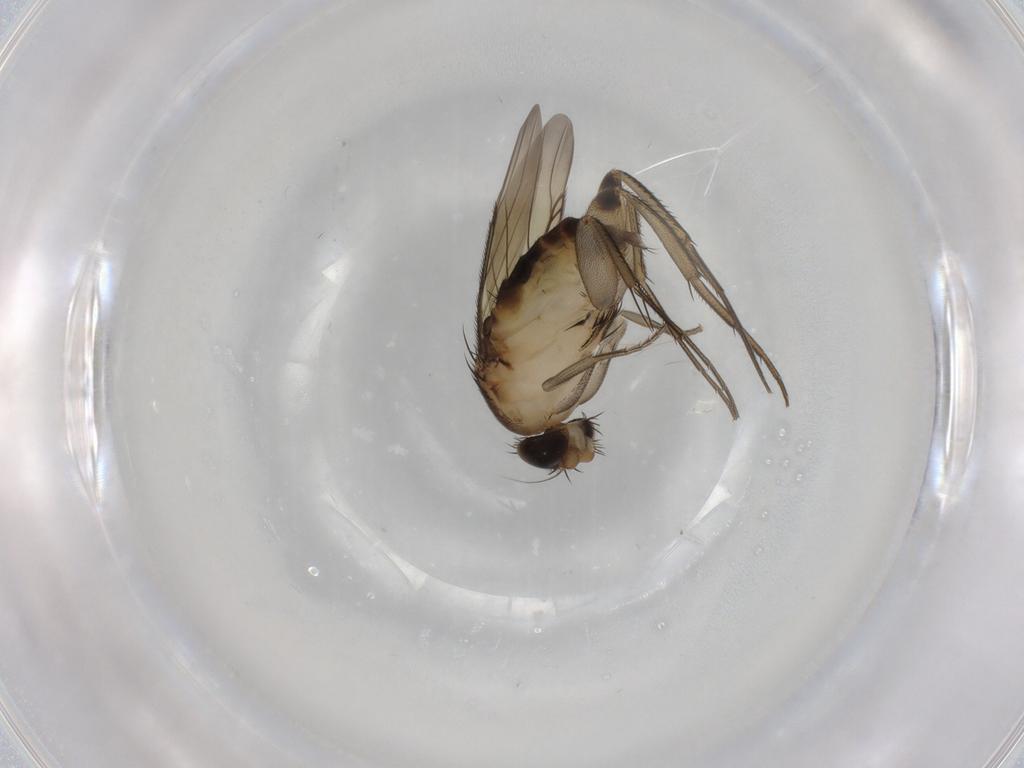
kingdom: Animalia
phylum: Arthropoda
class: Insecta
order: Diptera
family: Phoridae
